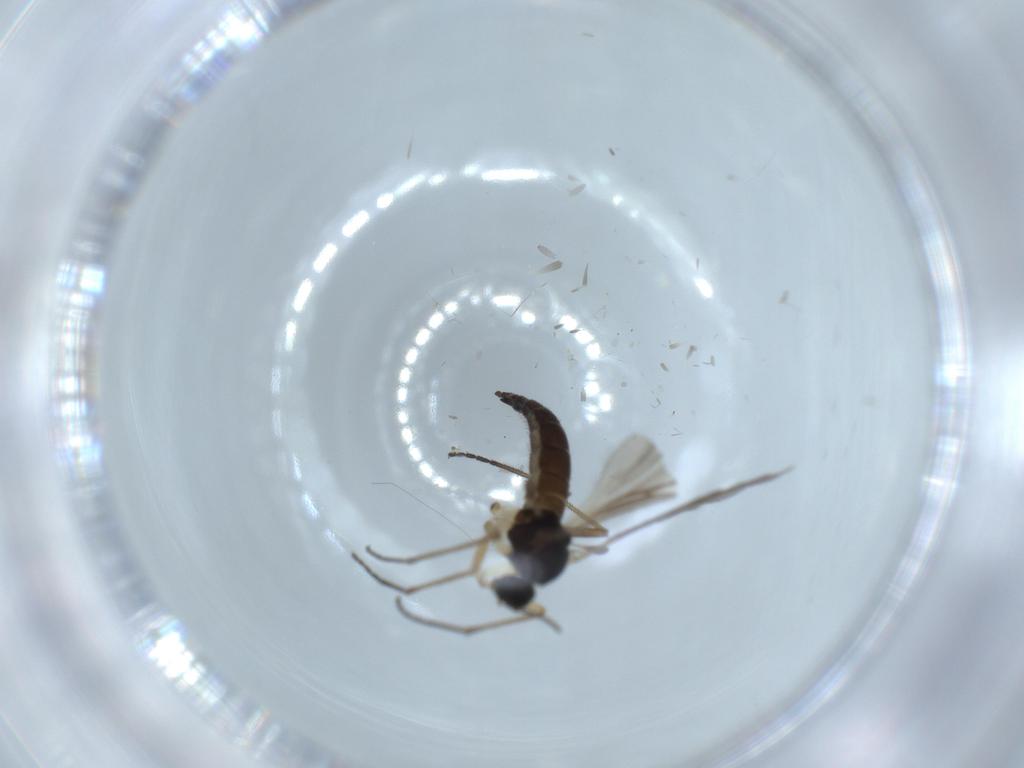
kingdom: Animalia
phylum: Arthropoda
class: Insecta
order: Diptera
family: Sciaridae
